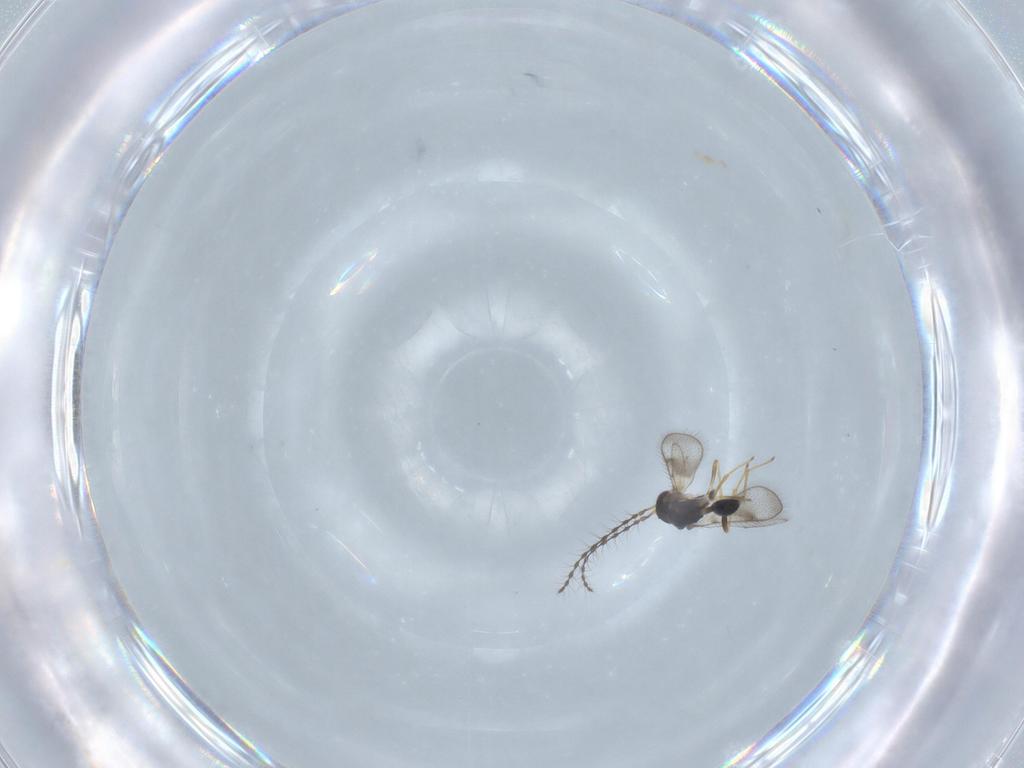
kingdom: Animalia
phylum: Arthropoda
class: Insecta
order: Hymenoptera
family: Diparidae
